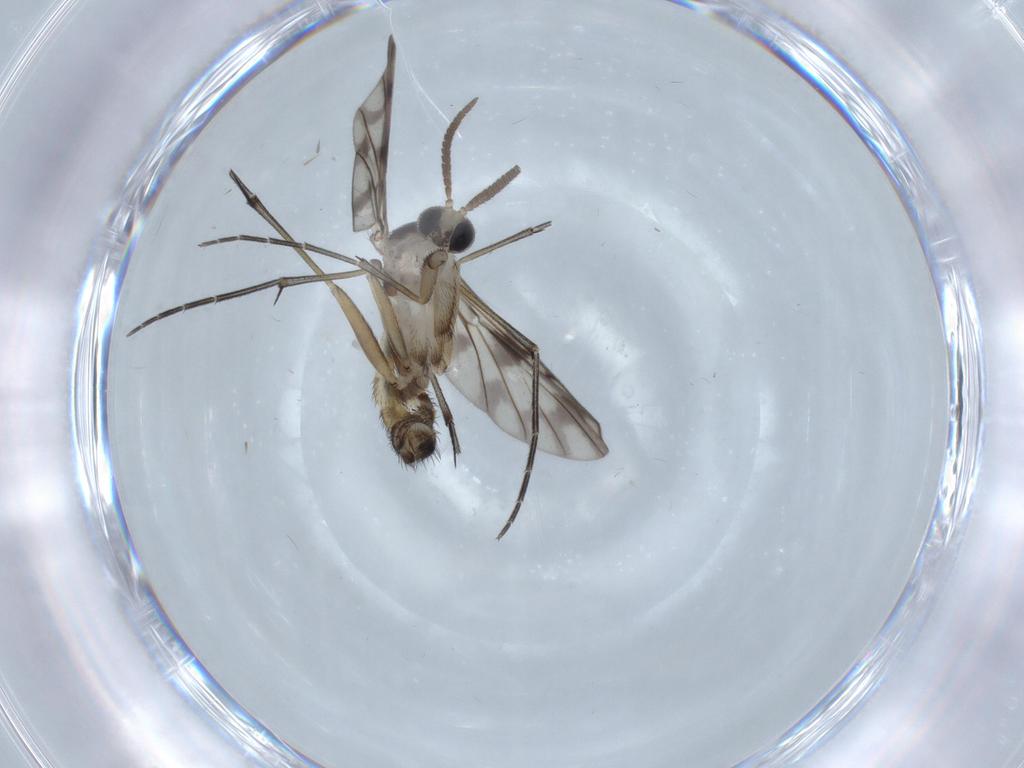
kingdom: Animalia
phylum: Arthropoda
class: Insecta
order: Diptera
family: Keroplatidae
